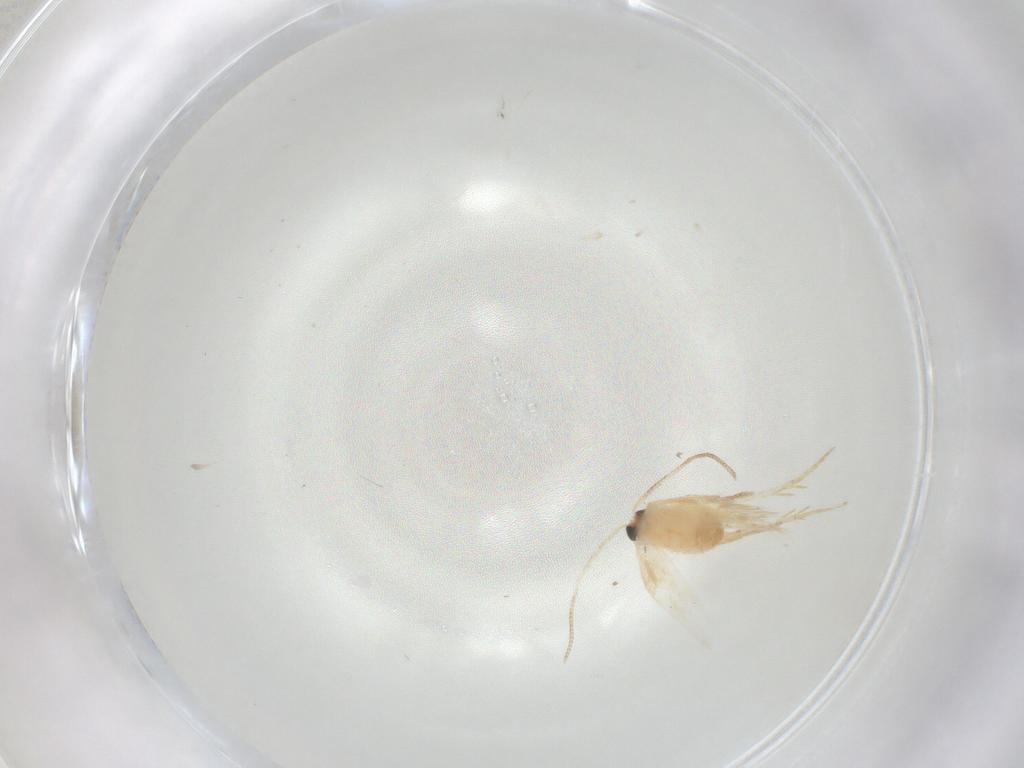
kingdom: Animalia
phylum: Arthropoda
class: Insecta
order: Lepidoptera
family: Nepticulidae
